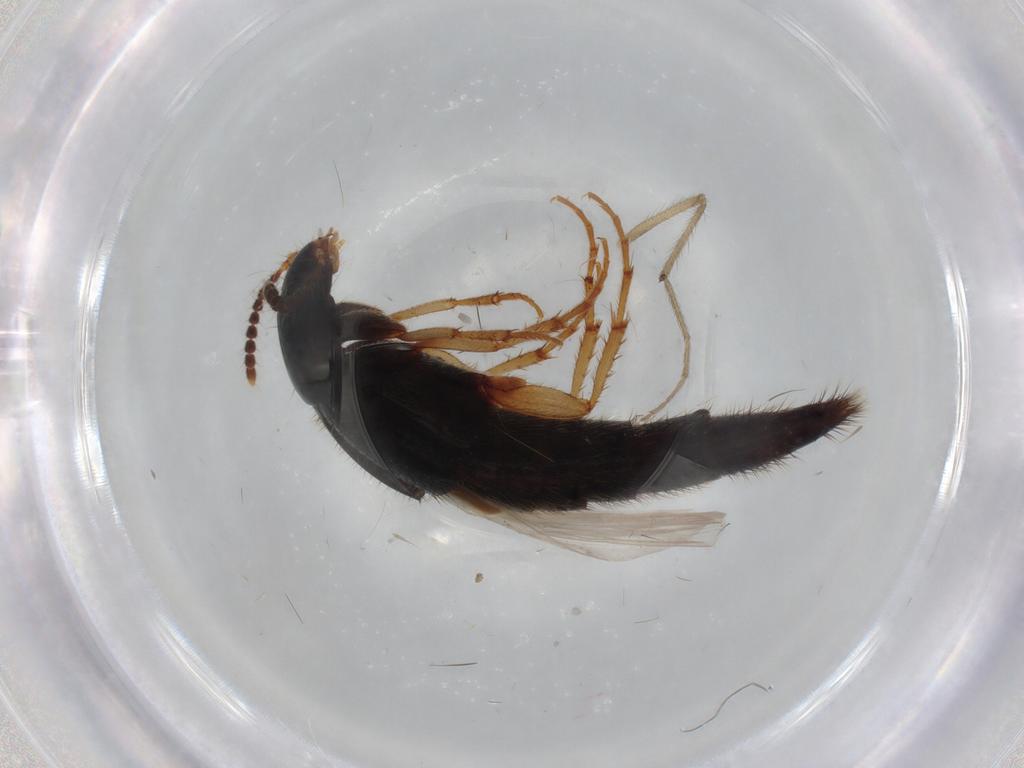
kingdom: Animalia
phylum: Arthropoda
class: Insecta
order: Coleoptera
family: Staphylinidae
